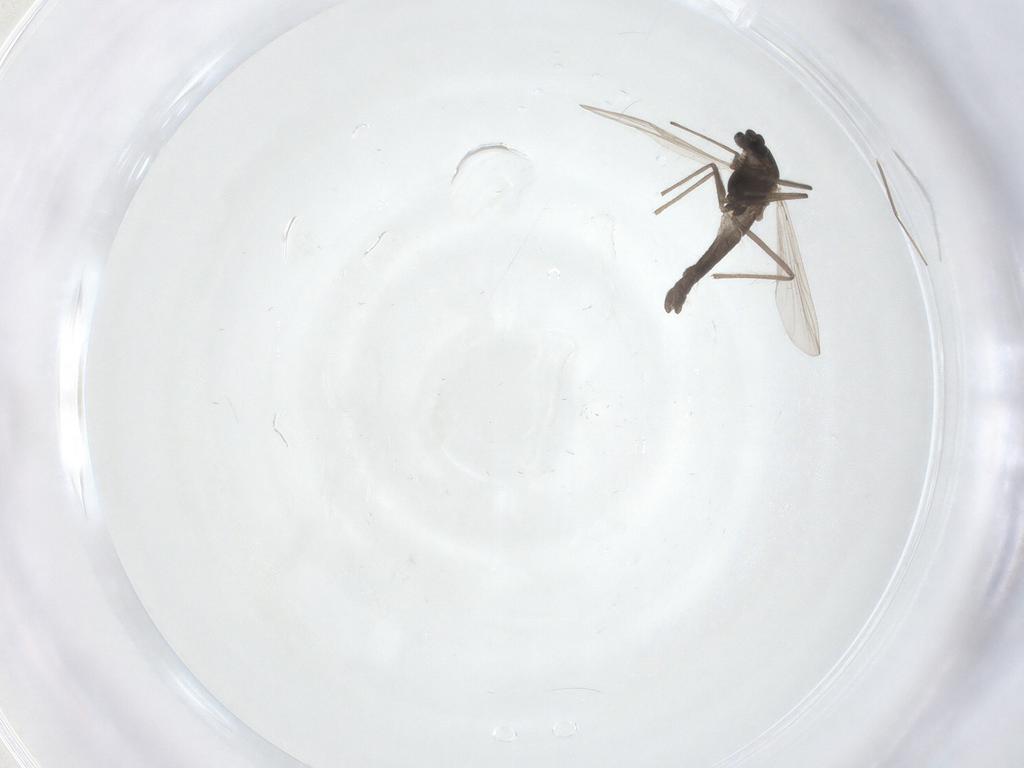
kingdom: Animalia
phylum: Arthropoda
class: Insecta
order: Diptera
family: Chironomidae
